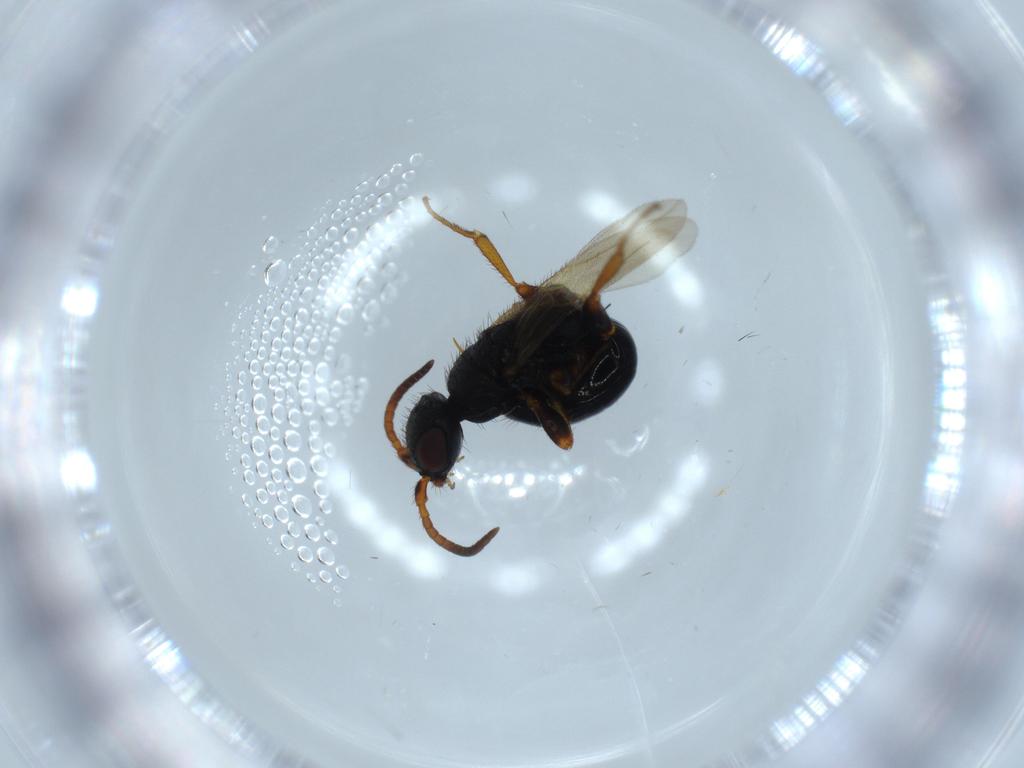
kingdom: Animalia
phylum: Arthropoda
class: Insecta
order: Hymenoptera
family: Bethylidae
